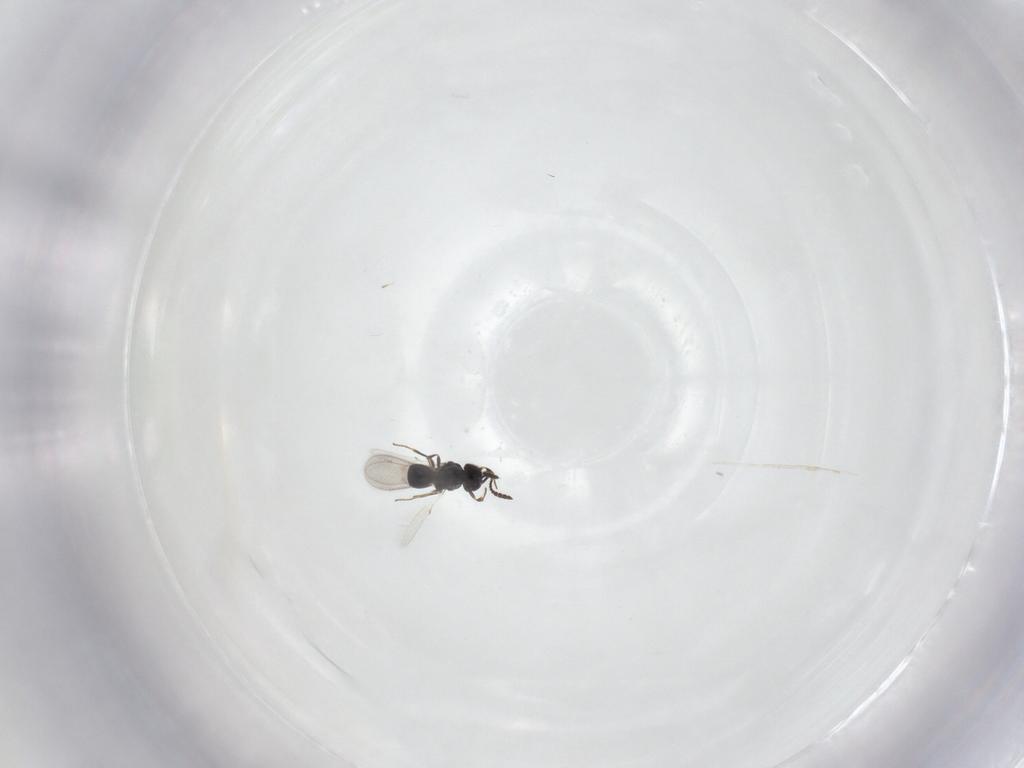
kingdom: Animalia
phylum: Arthropoda
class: Insecta
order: Hymenoptera
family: Scelionidae
